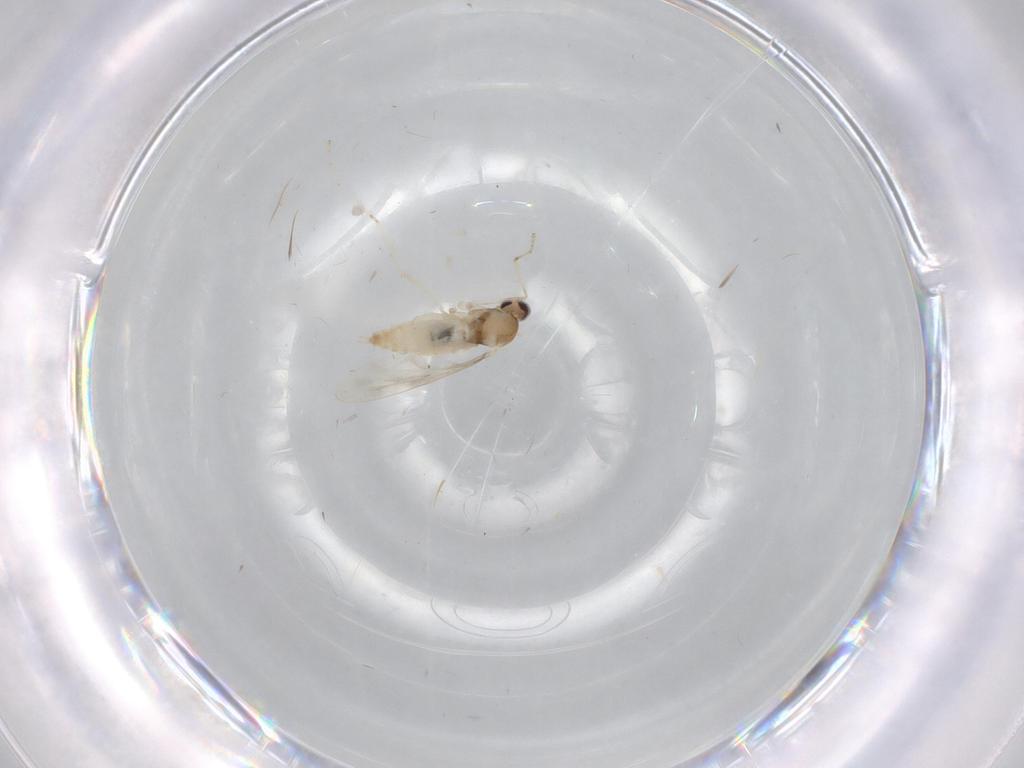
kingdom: Animalia
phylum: Arthropoda
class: Insecta
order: Diptera
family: Cecidomyiidae
